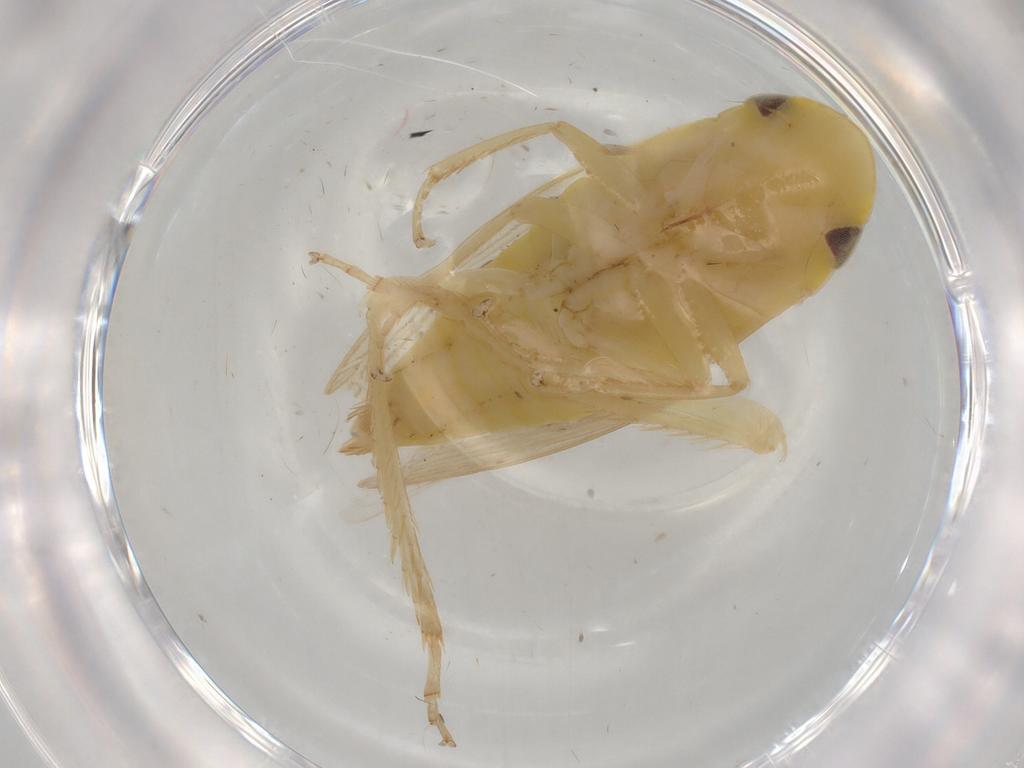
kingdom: Animalia
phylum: Arthropoda
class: Insecta
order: Hemiptera
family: Cicadellidae
